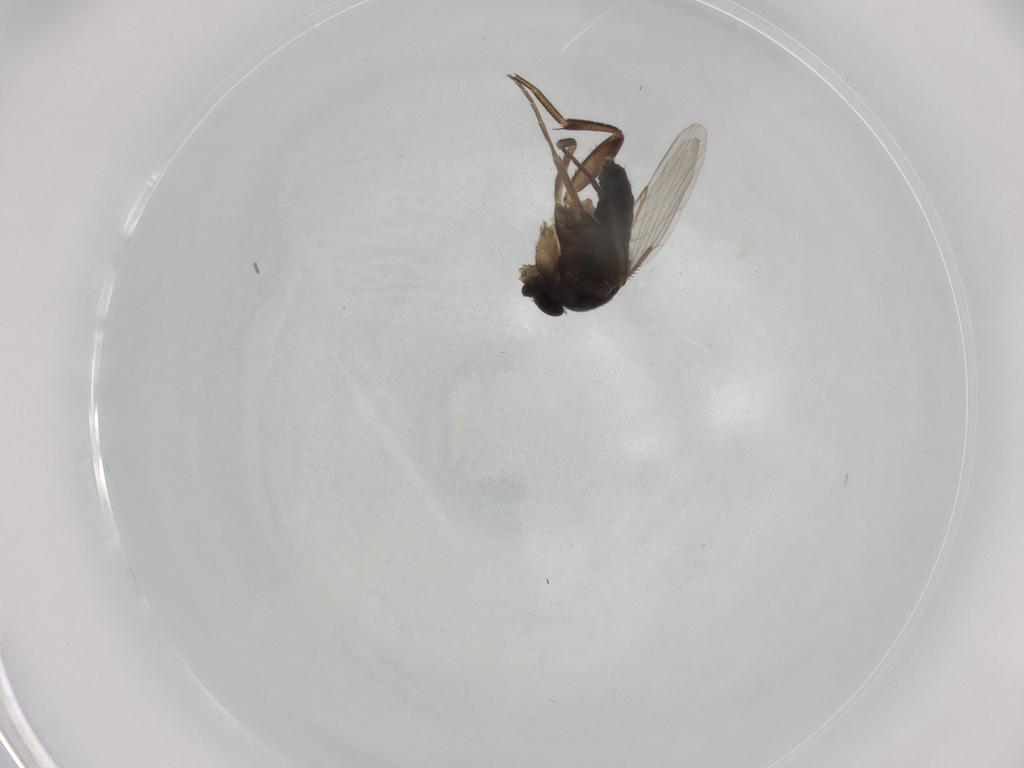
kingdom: Animalia
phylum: Arthropoda
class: Insecta
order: Diptera
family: Phoridae
